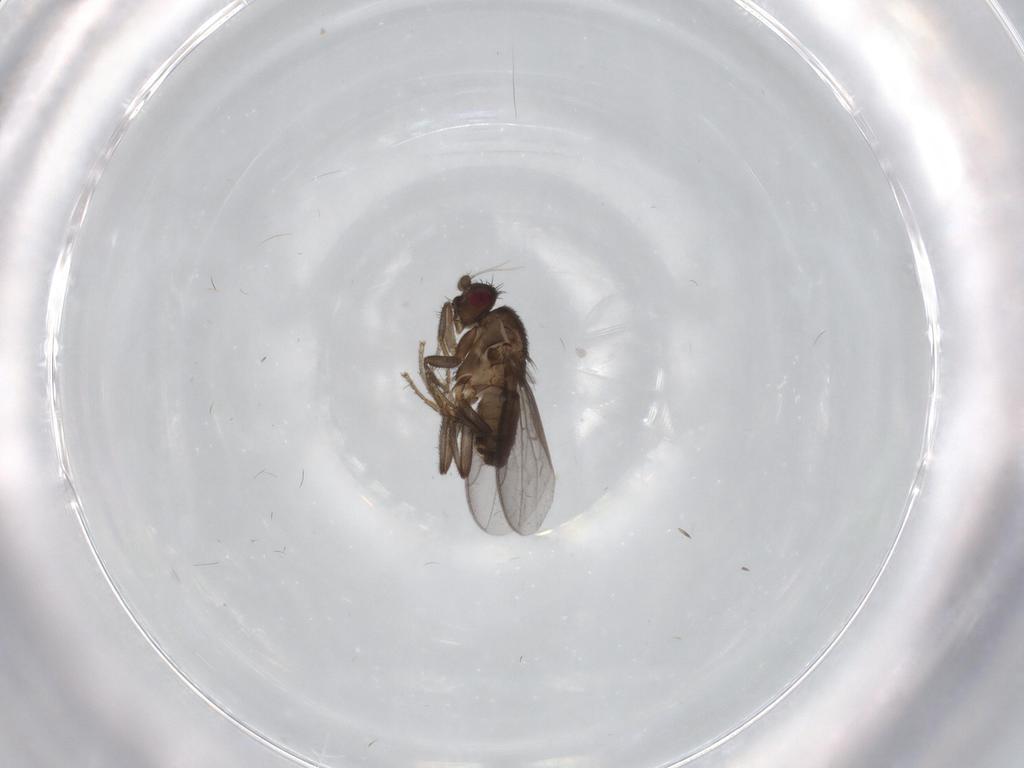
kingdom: Animalia
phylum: Arthropoda
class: Insecta
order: Diptera
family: Sphaeroceridae
